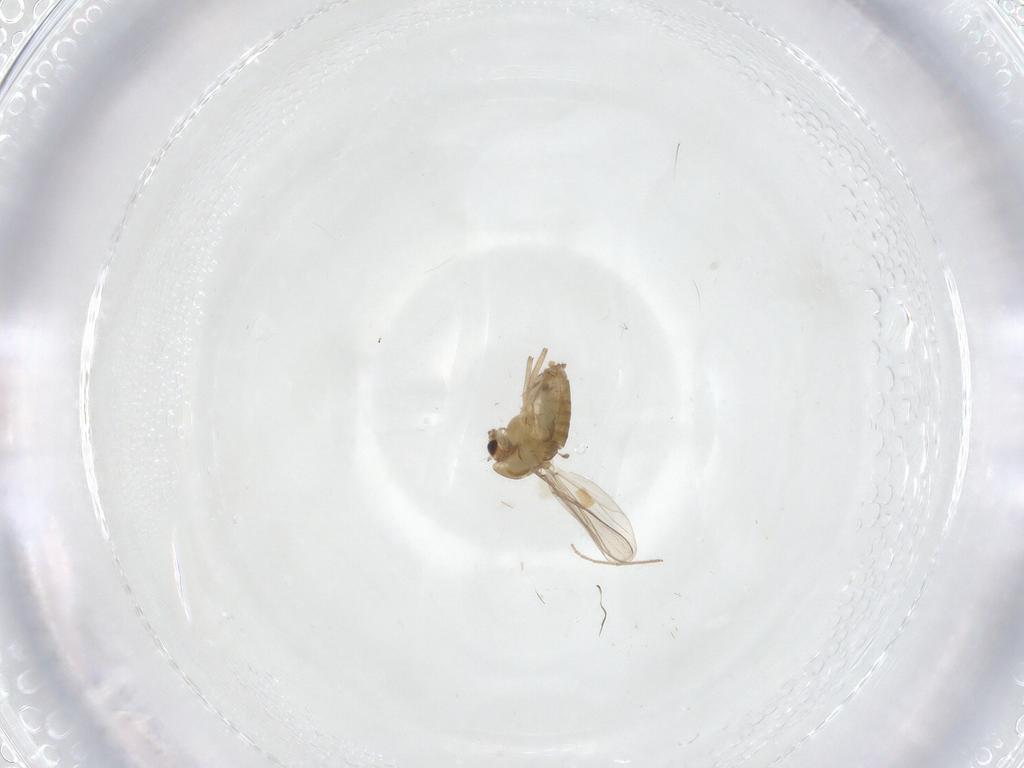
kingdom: Animalia
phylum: Arthropoda
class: Insecta
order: Diptera
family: Chironomidae
